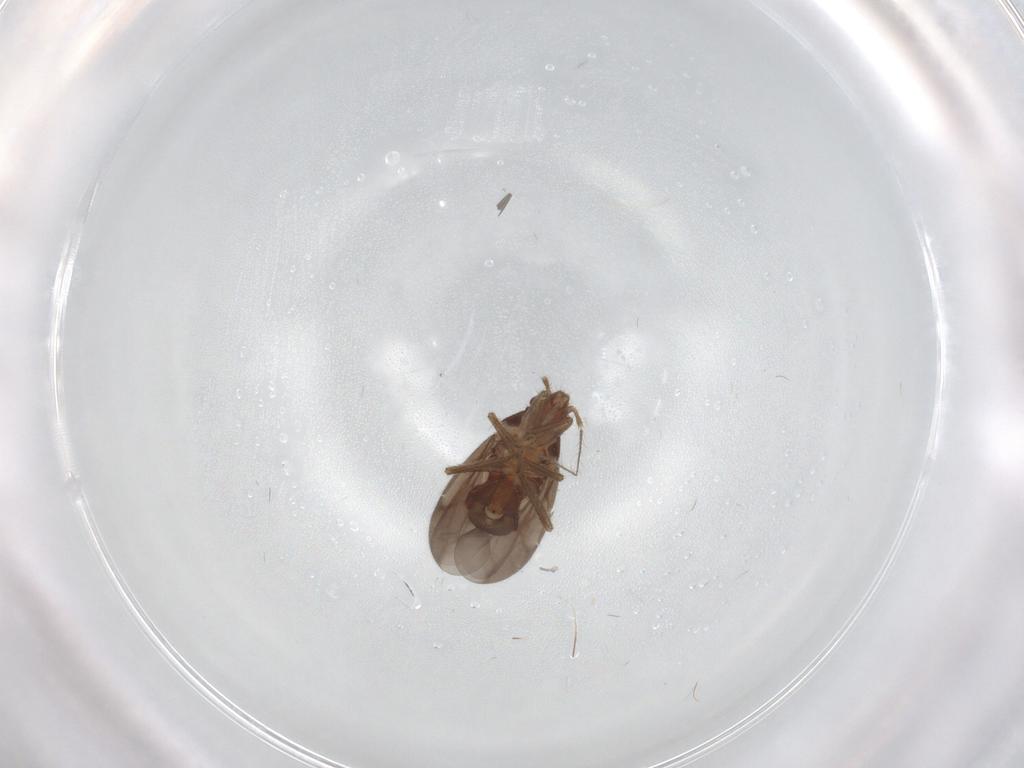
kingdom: Animalia
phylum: Arthropoda
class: Insecta
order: Hemiptera
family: Ceratocombidae
